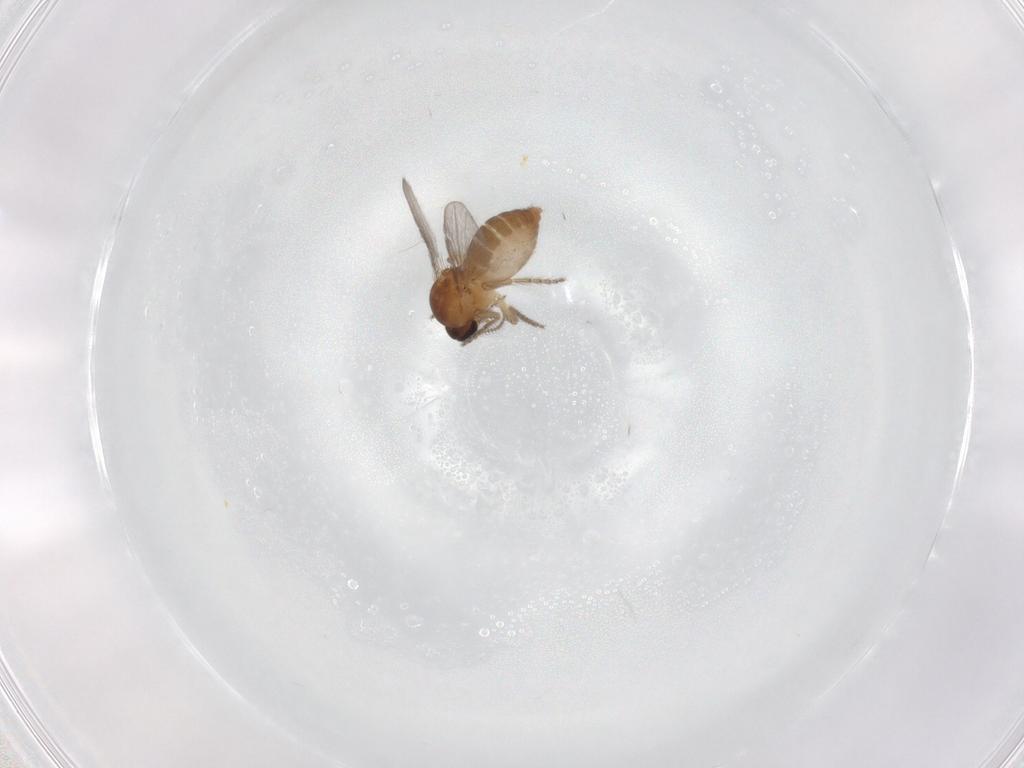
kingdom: Animalia
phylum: Arthropoda
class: Insecta
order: Diptera
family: Ceratopogonidae
